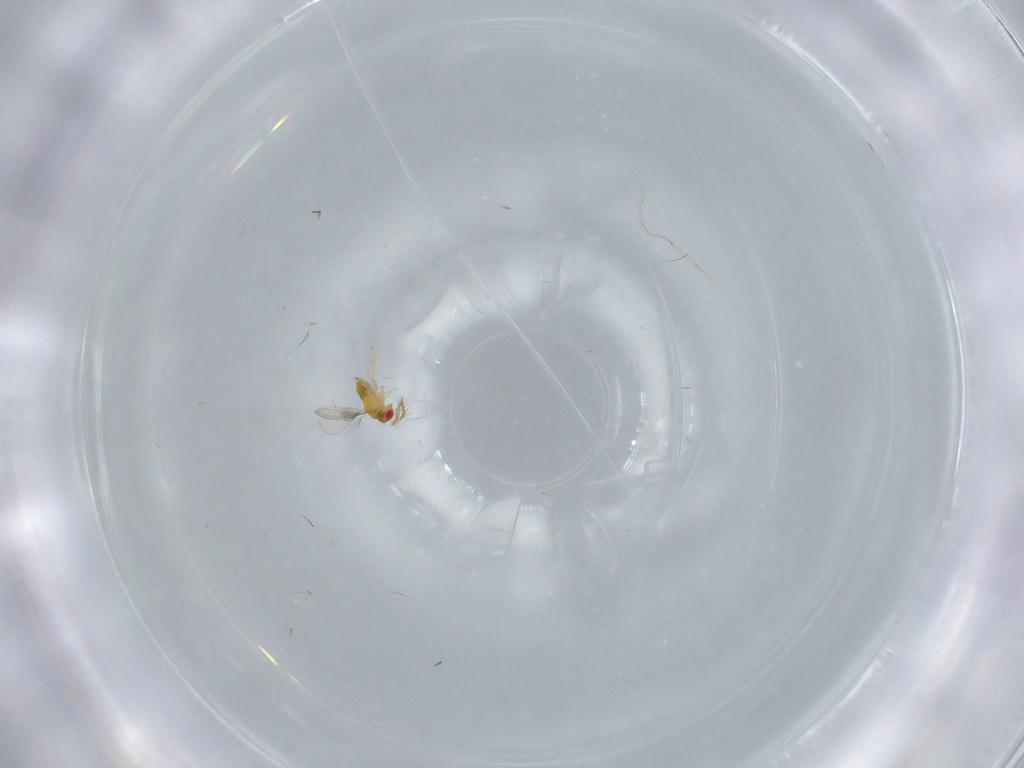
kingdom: Animalia
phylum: Arthropoda
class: Insecta
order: Hymenoptera
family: Trichogrammatidae
